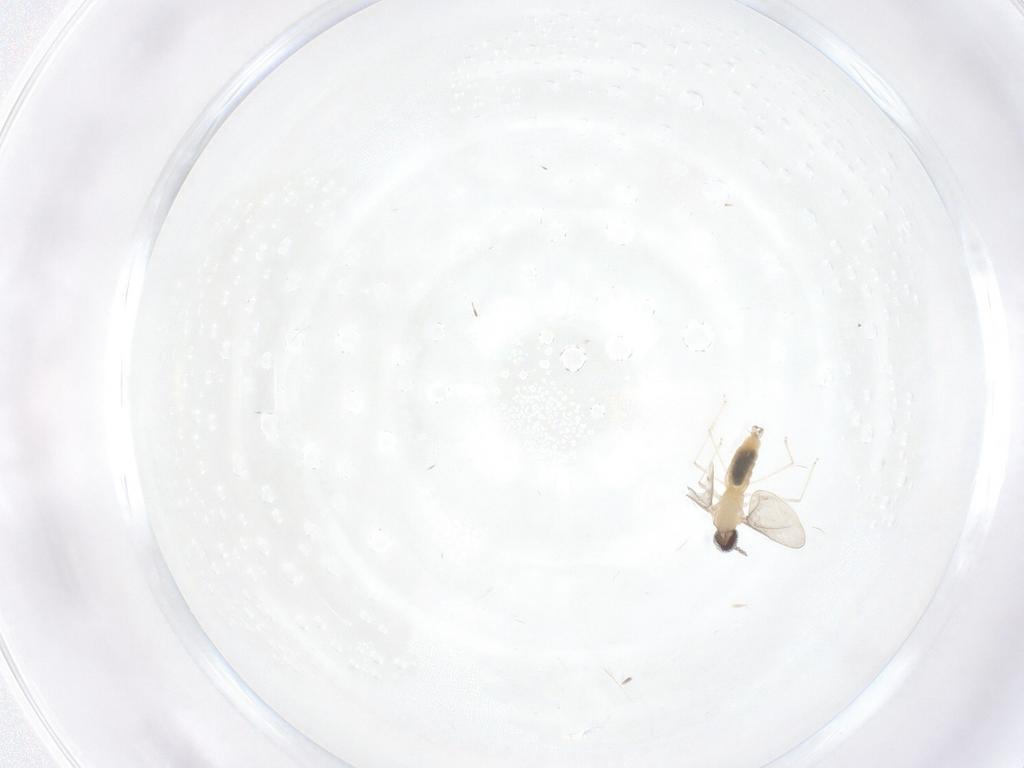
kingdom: Animalia
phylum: Arthropoda
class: Insecta
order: Diptera
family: Cecidomyiidae
